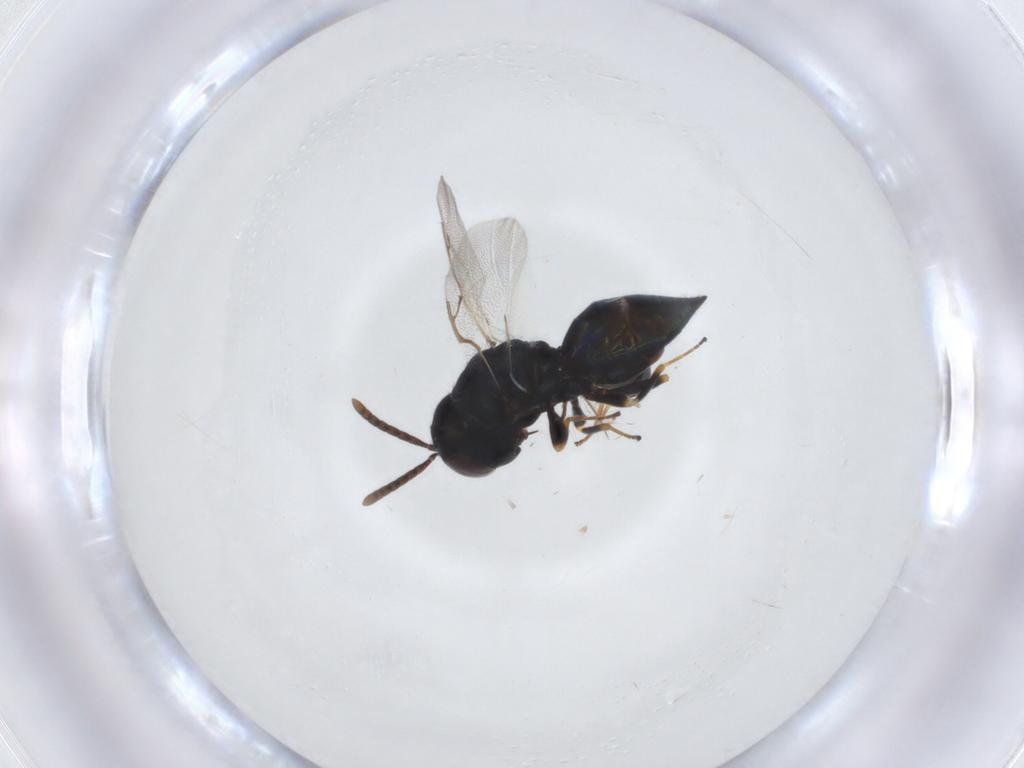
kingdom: Animalia
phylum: Arthropoda
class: Insecta
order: Hymenoptera
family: Pteromalidae
